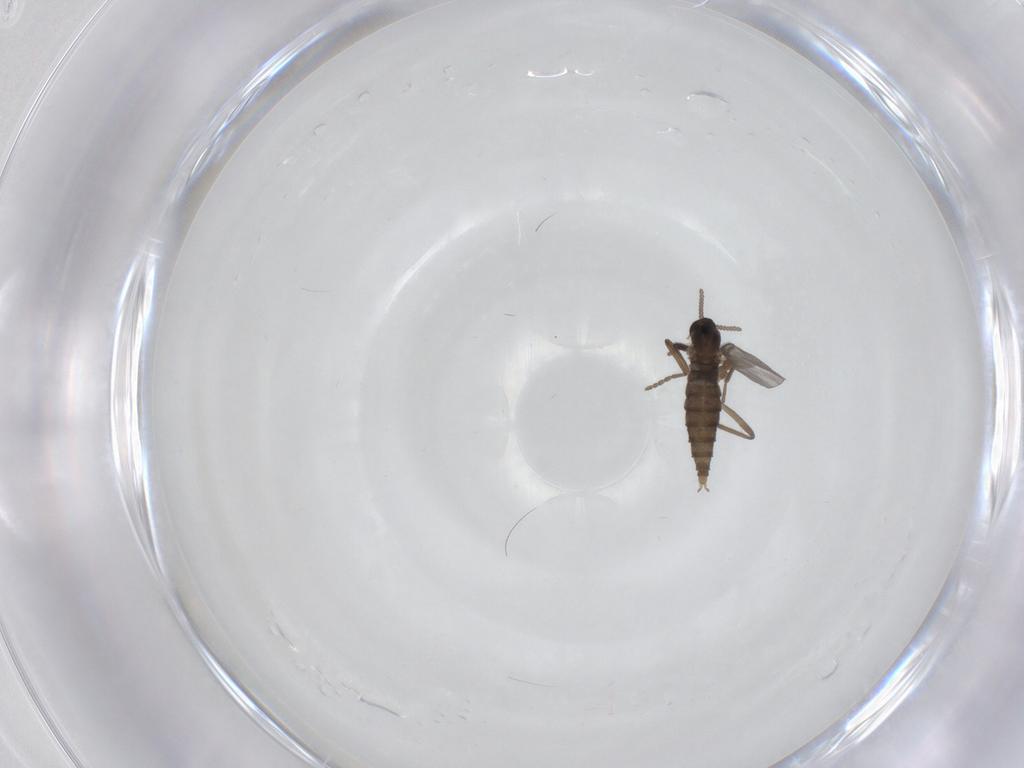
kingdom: Animalia
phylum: Arthropoda
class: Insecta
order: Diptera
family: Cecidomyiidae
